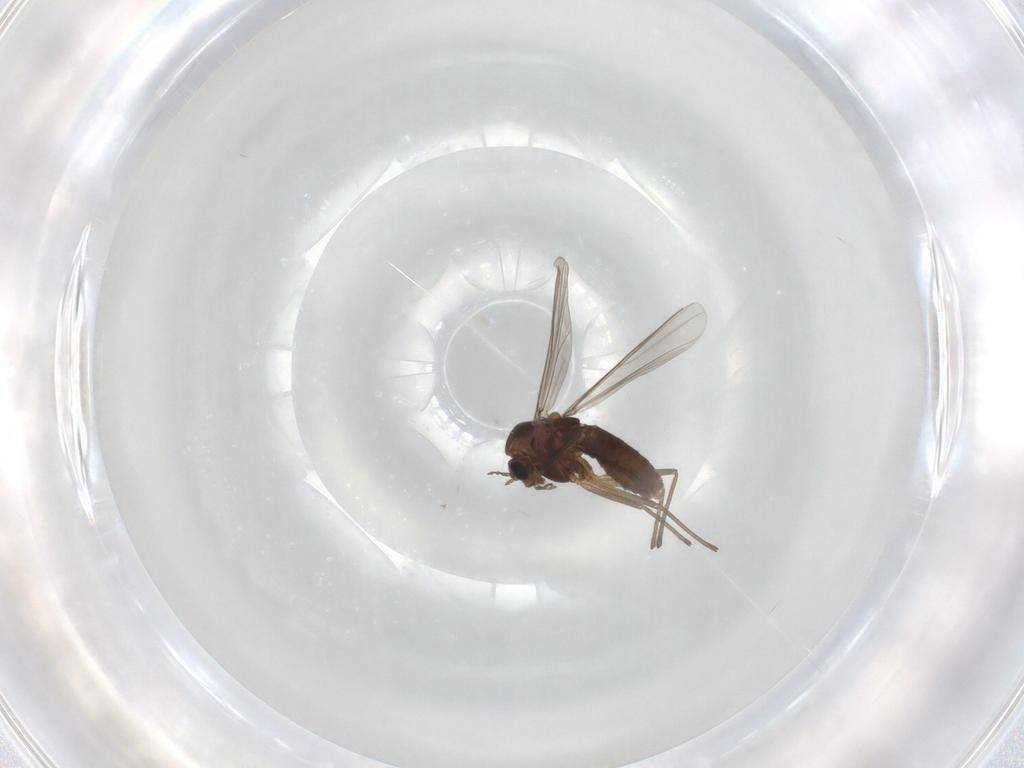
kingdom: Animalia
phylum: Arthropoda
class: Insecta
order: Diptera
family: Chironomidae
